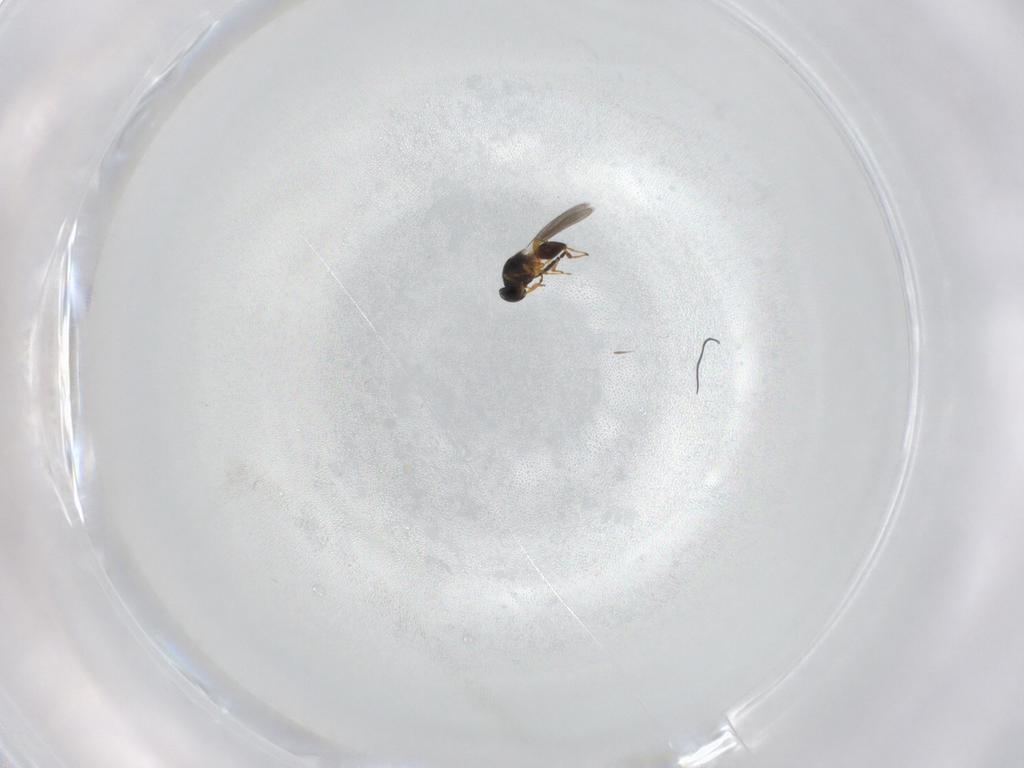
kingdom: Animalia
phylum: Arthropoda
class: Insecta
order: Hymenoptera
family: Platygastridae
